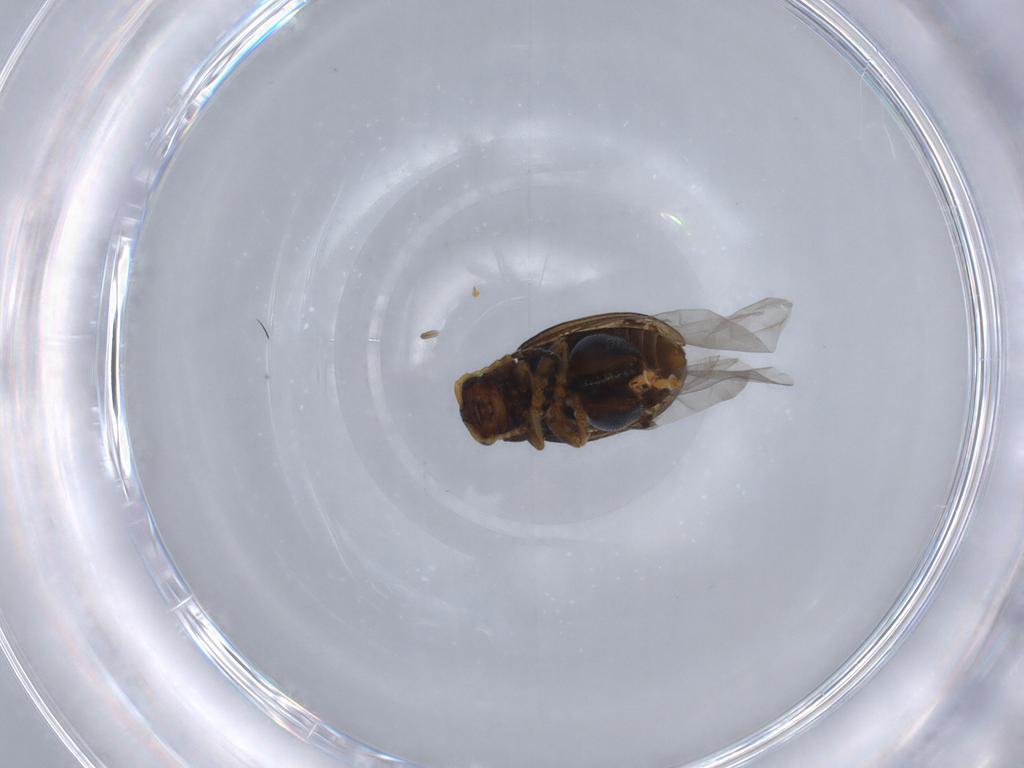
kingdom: Animalia
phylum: Arthropoda
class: Insecta
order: Coleoptera
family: Chrysomelidae
